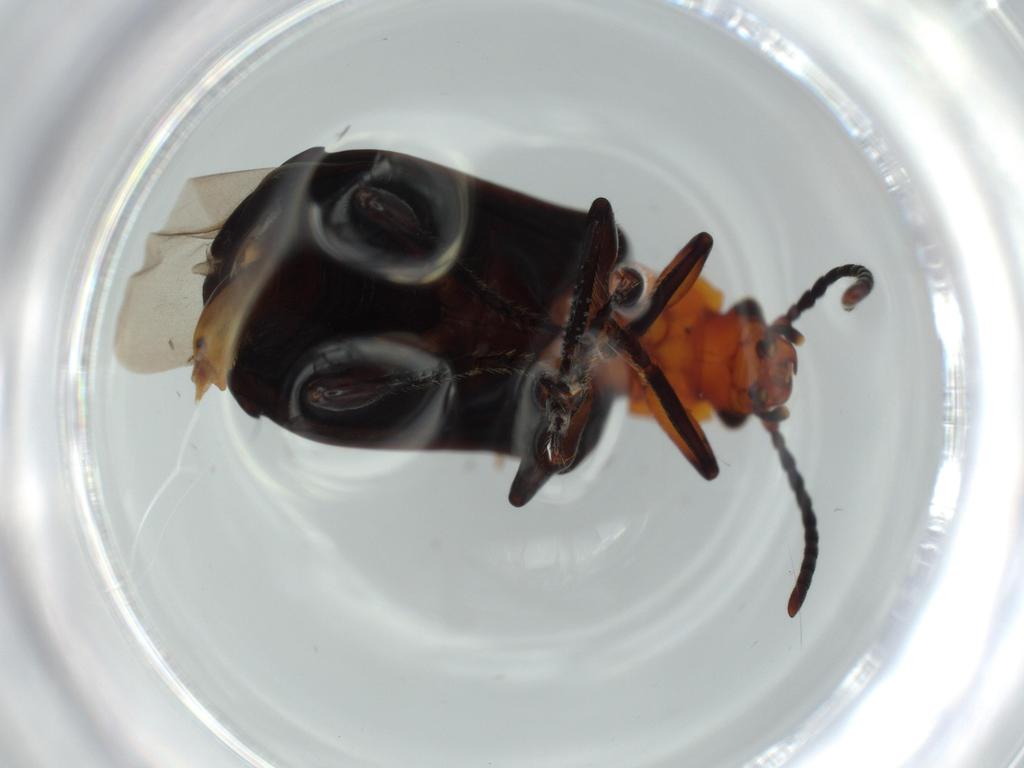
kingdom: Animalia
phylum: Arthropoda
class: Insecta
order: Coleoptera
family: Carabidae
